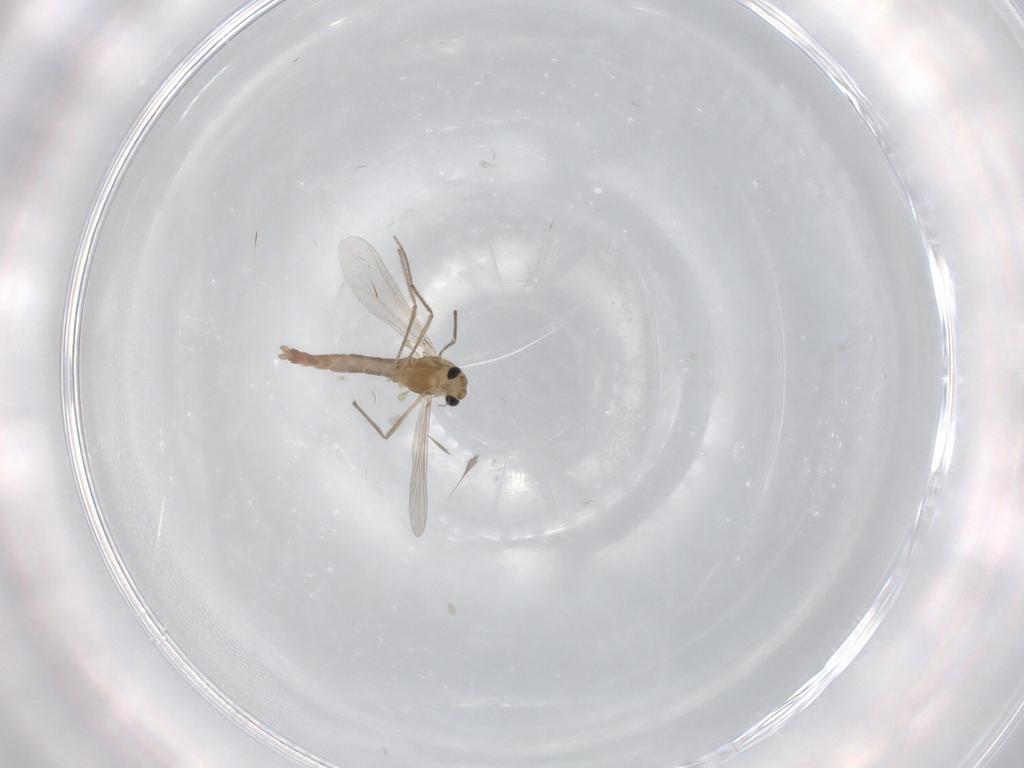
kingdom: Animalia
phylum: Arthropoda
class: Insecta
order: Diptera
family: Chironomidae
